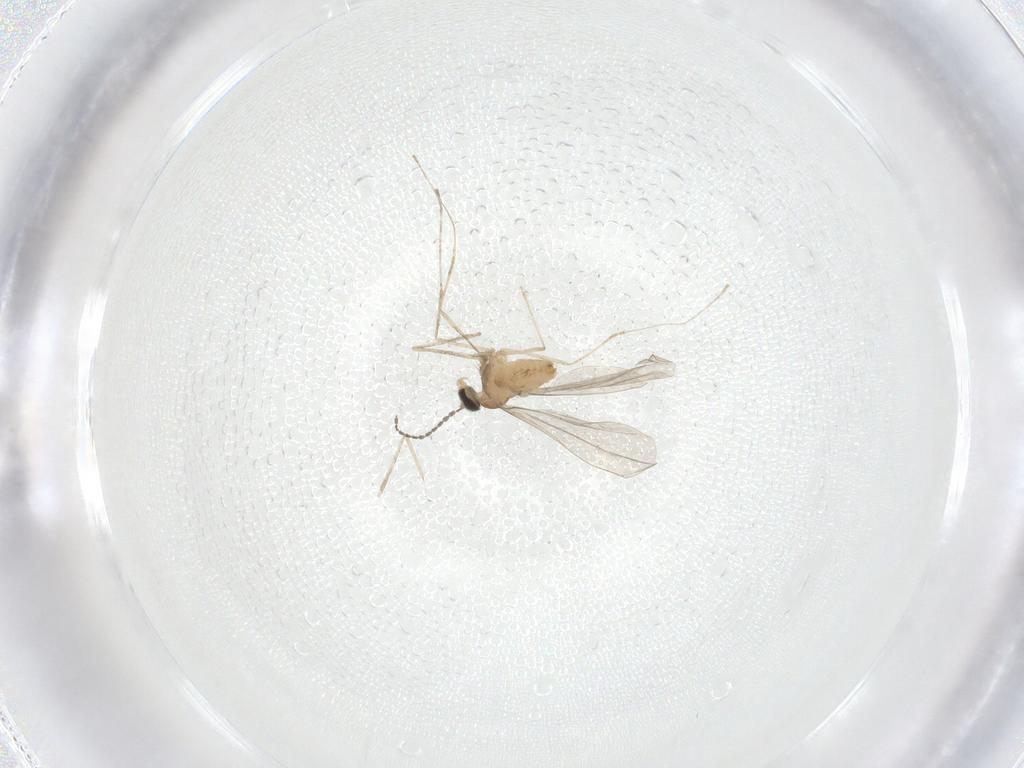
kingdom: Animalia
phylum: Arthropoda
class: Insecta
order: Diptera
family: Cecidomyiidae
